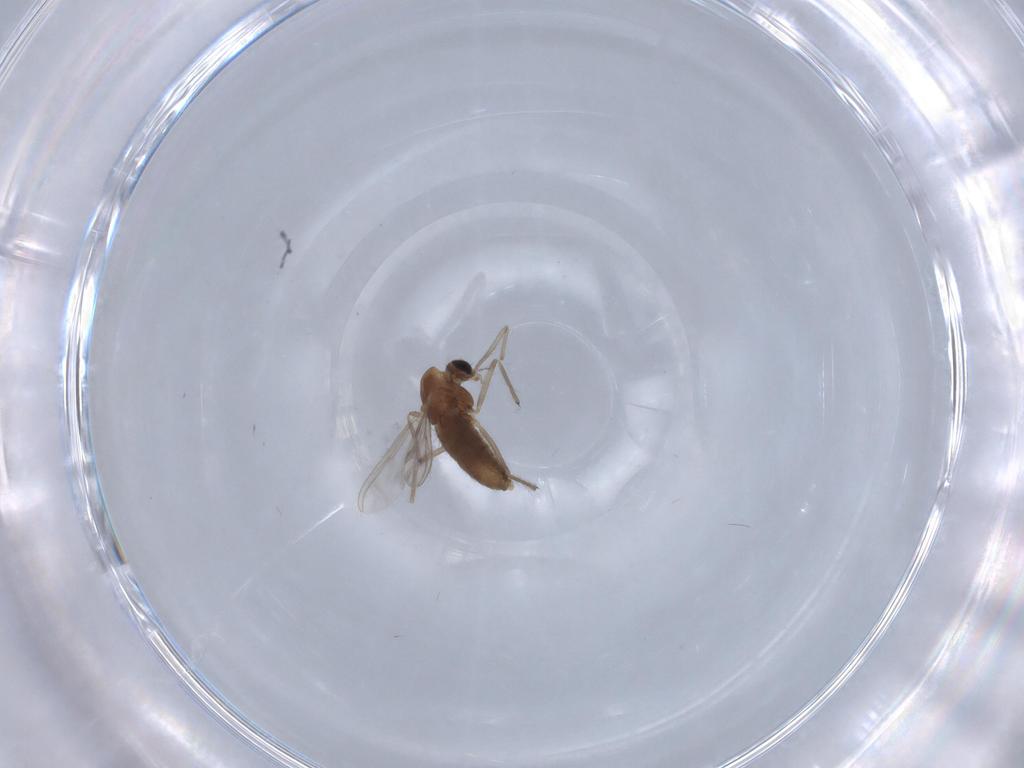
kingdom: Animalia
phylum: Arthropoda
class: Insecta
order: Diptera
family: Chironomidae
